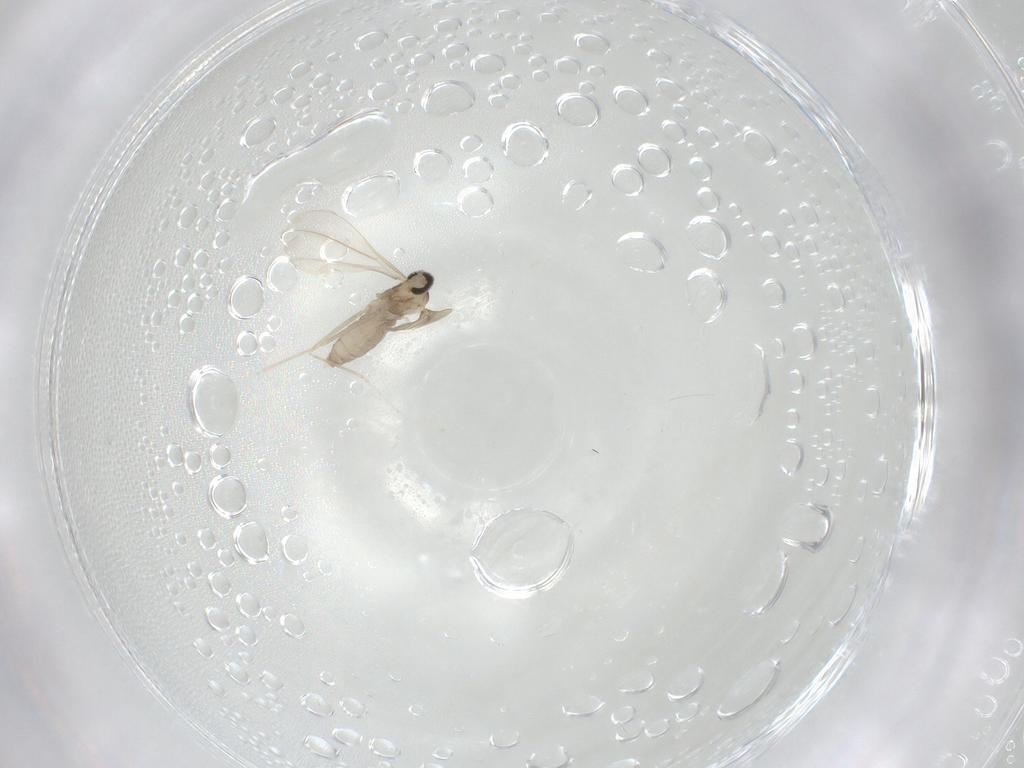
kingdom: Animalia
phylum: Arthropoda
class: Insecta
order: Diptera
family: Cecidomyiidae
